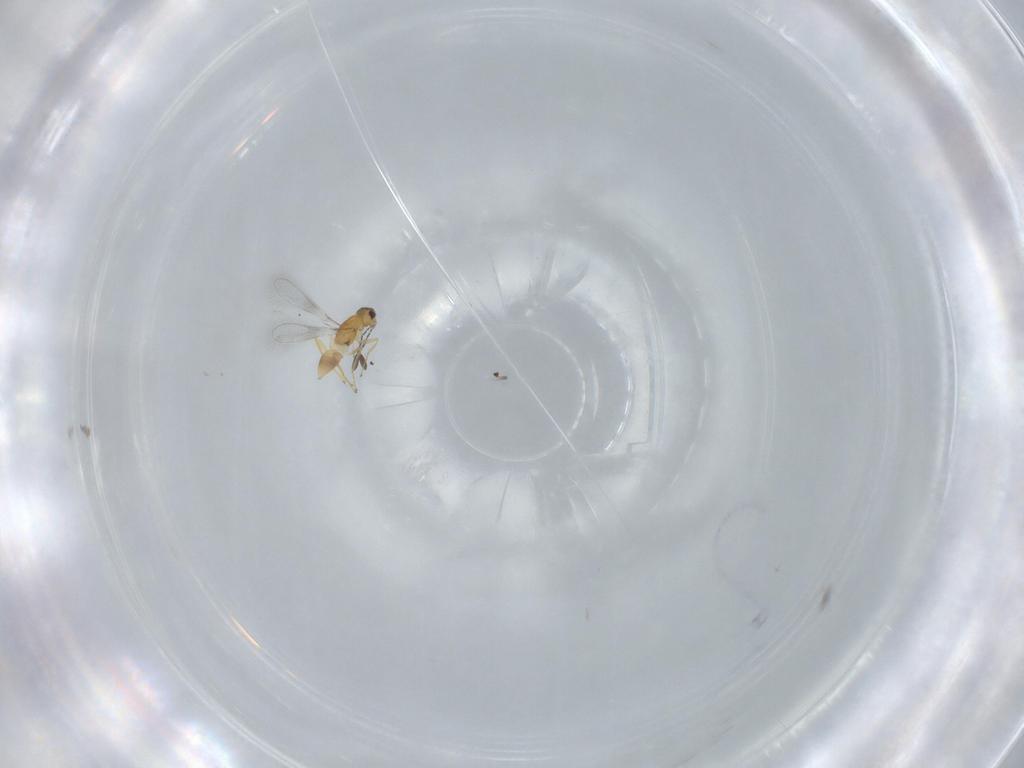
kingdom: Animalia
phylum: Arthropoda
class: Insecta
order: Hymenoptera
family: Scelionidae
